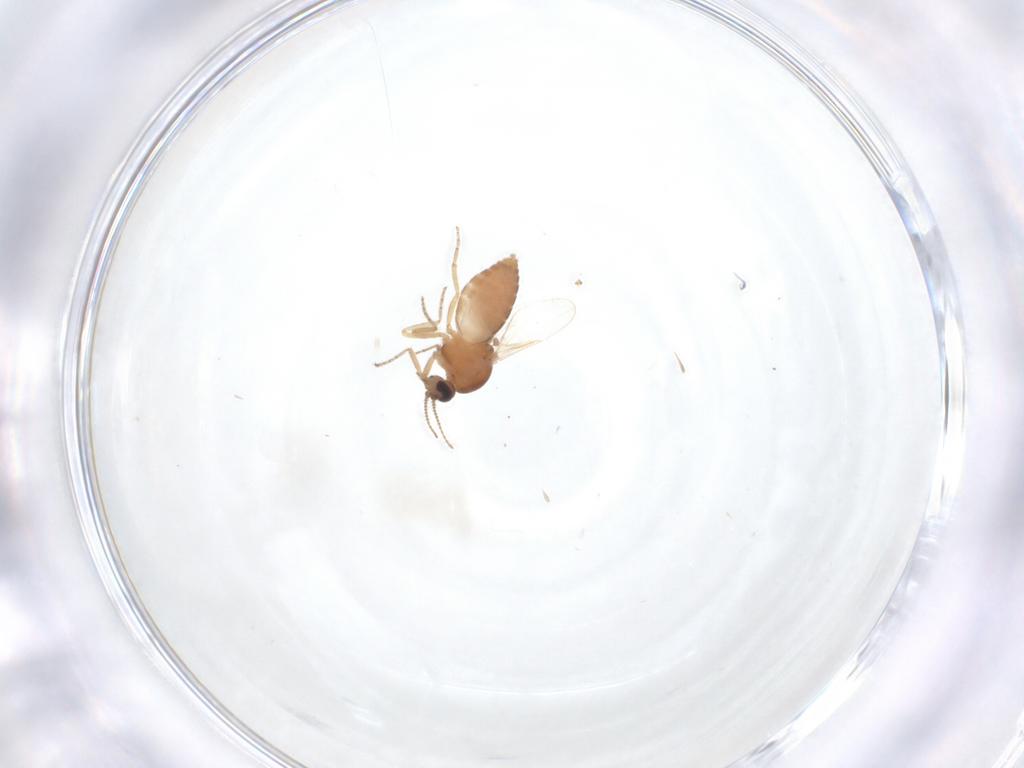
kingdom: Animalia
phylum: Arthropoda
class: Insecta
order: Diptera
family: Ceratopogonidae
